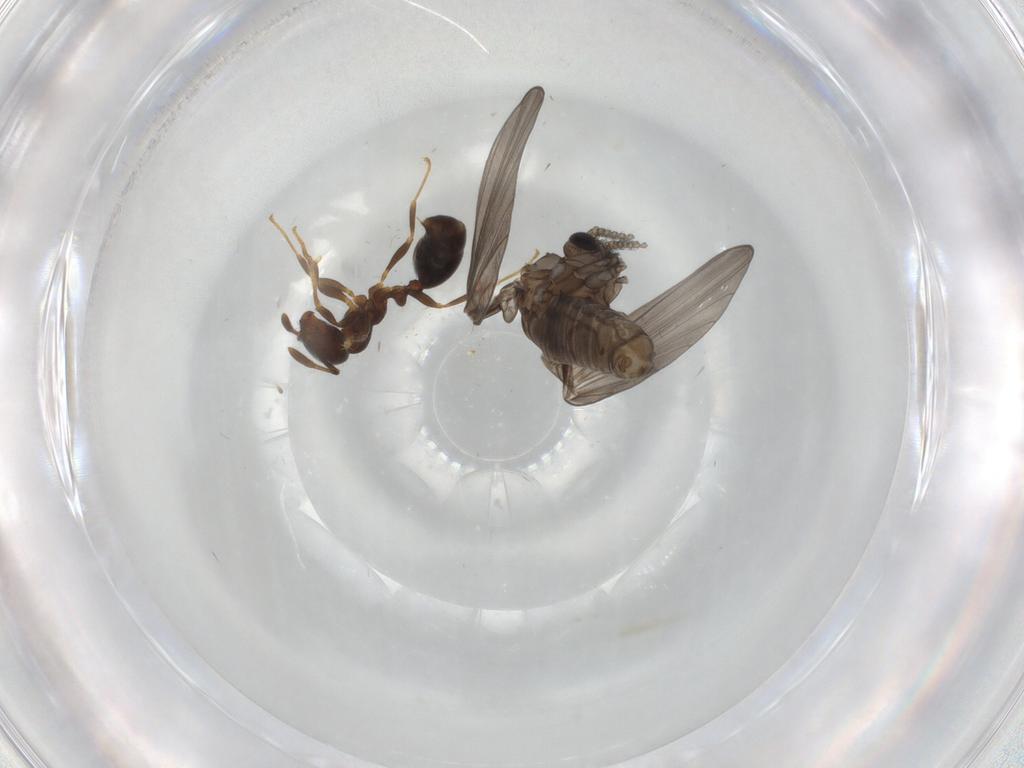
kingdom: Animalia
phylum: Arthropoda
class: Insecta
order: Diptera
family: Psychodidae
